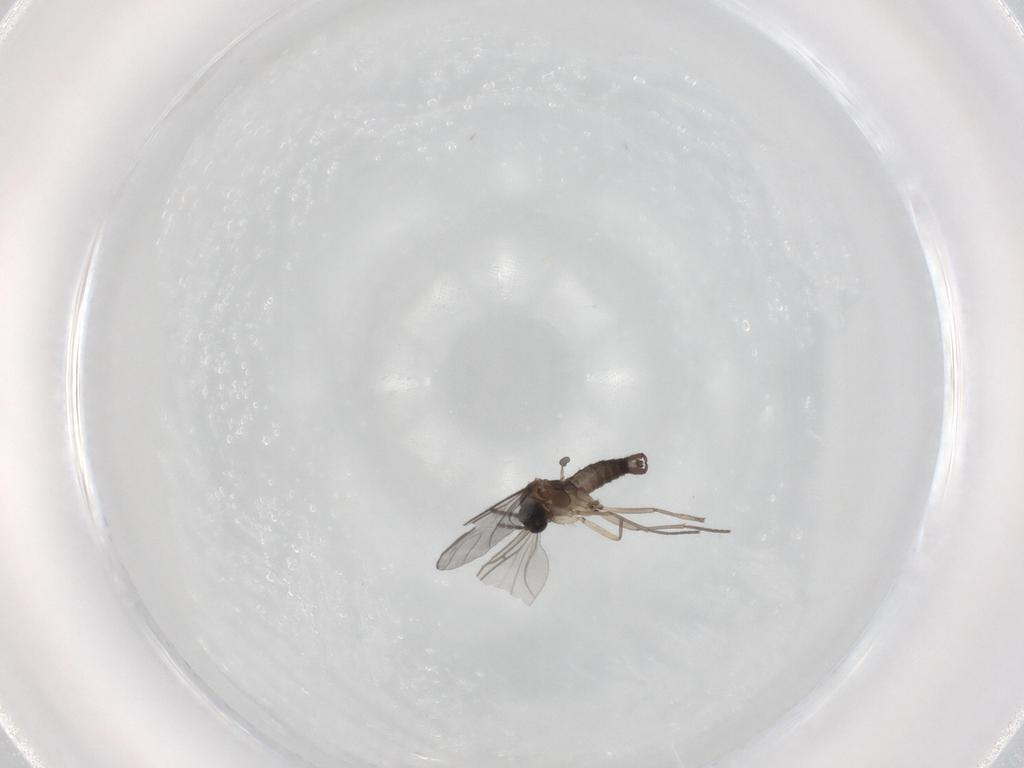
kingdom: Animalia
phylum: Arthropoda
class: Insecta
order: Diptera
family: Sciaridae
